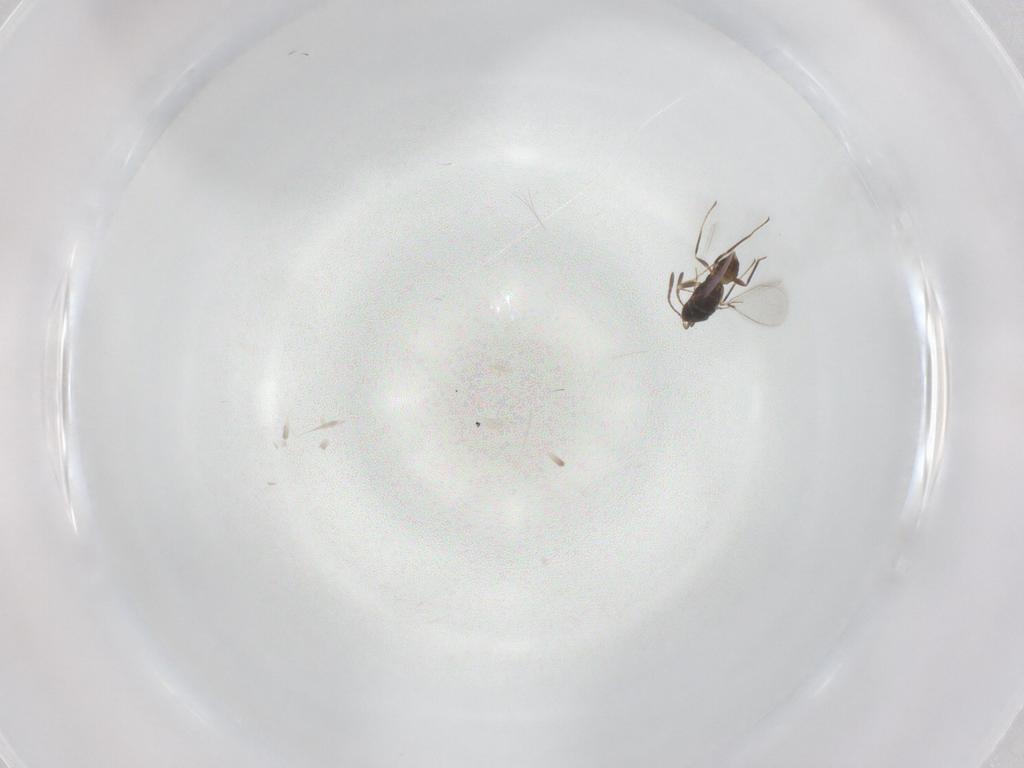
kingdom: Animalia
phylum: Arthropoda
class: Insecta
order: Hymenoptera
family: Mymaridae
